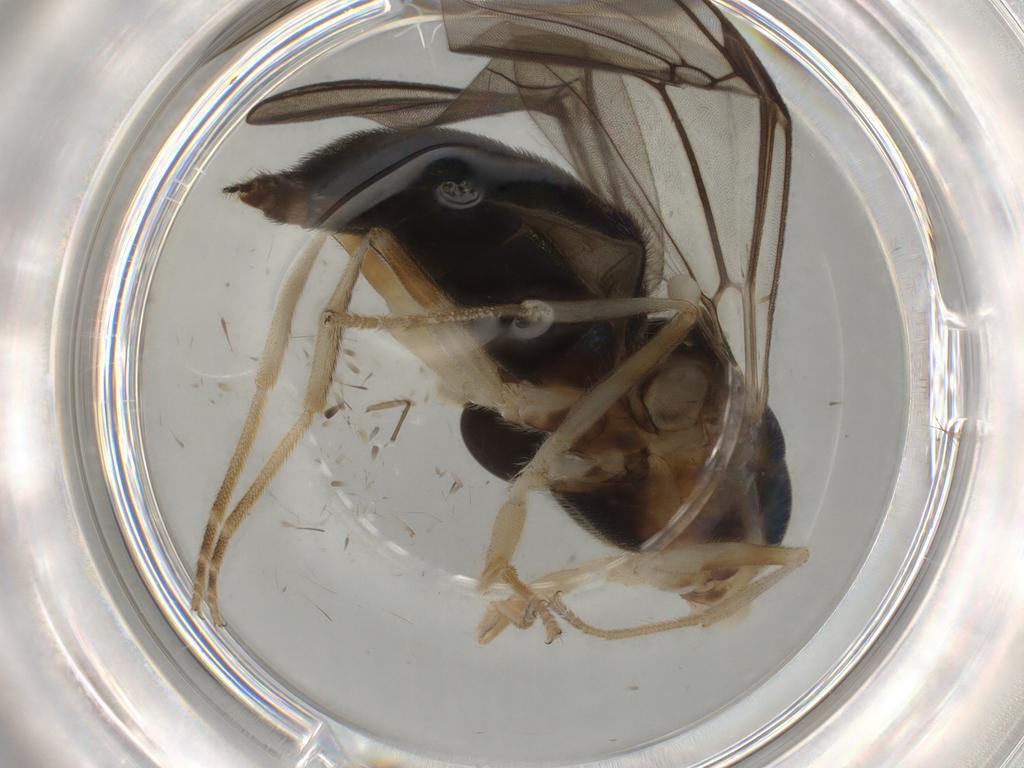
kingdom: Animalia
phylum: Arthropoda
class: Insecta
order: Diptera
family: Phoridae
